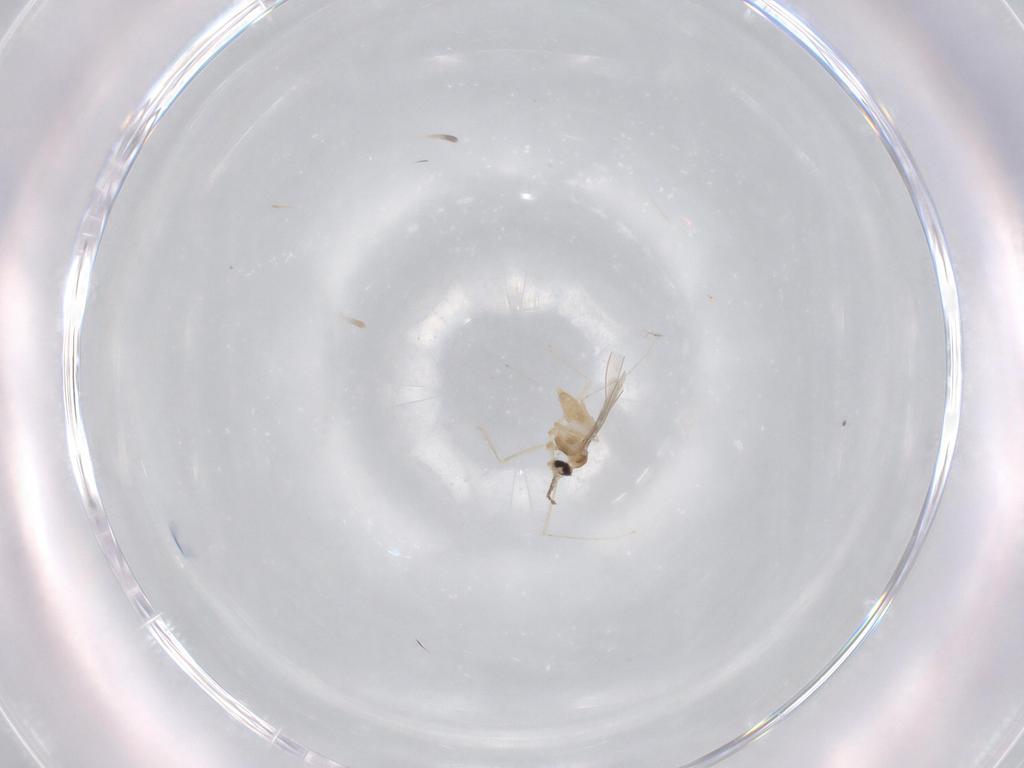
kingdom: Animalia
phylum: Arthropoda
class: Insecta
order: Diptera
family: Cecidomyiidae
